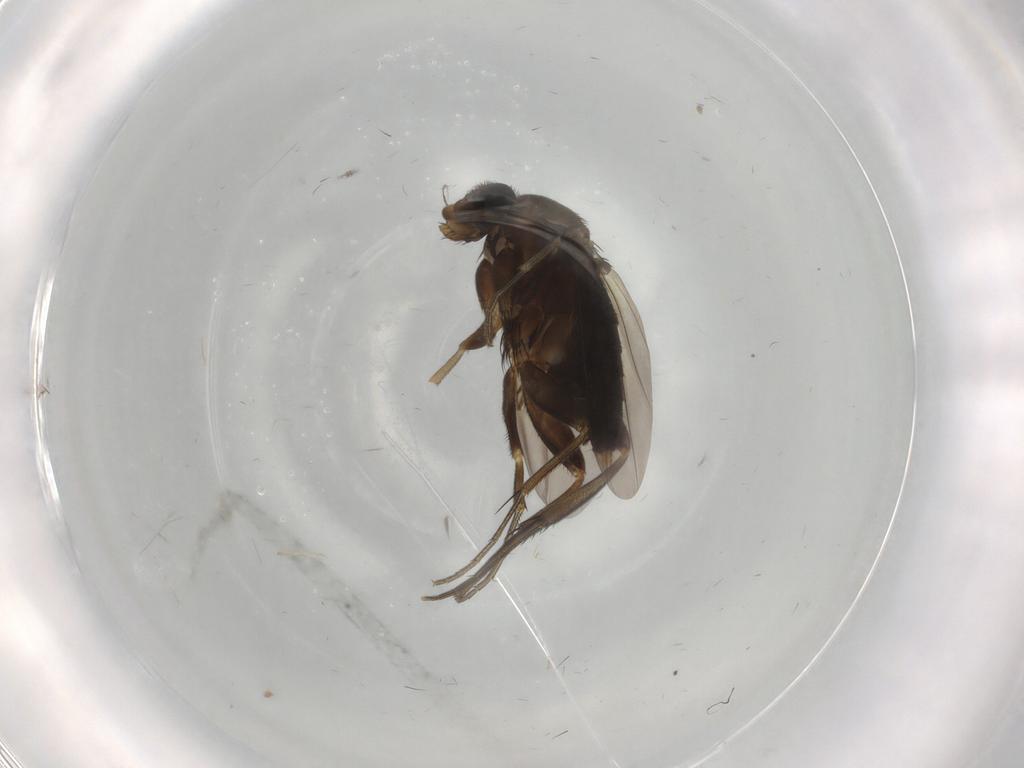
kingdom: Animalia
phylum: Arthropoda
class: Insecta
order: Diptera
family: Phoridae
